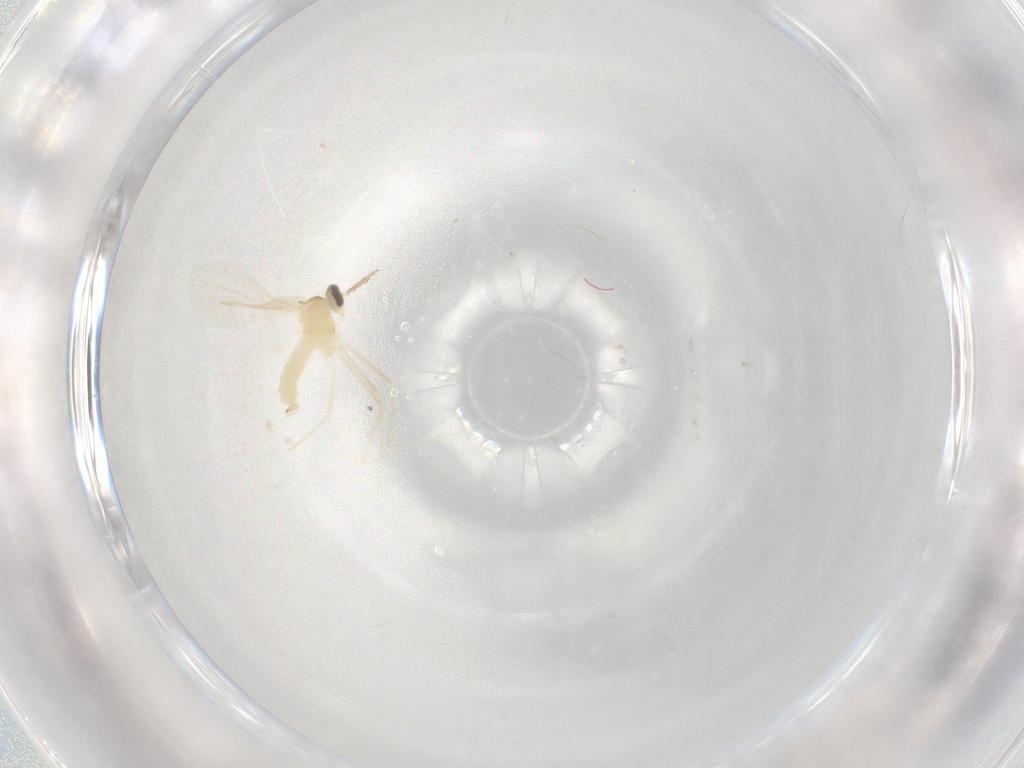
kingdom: Animalia
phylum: Arthropoda
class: Insecta
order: Diptera
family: Cecidomyiidae
